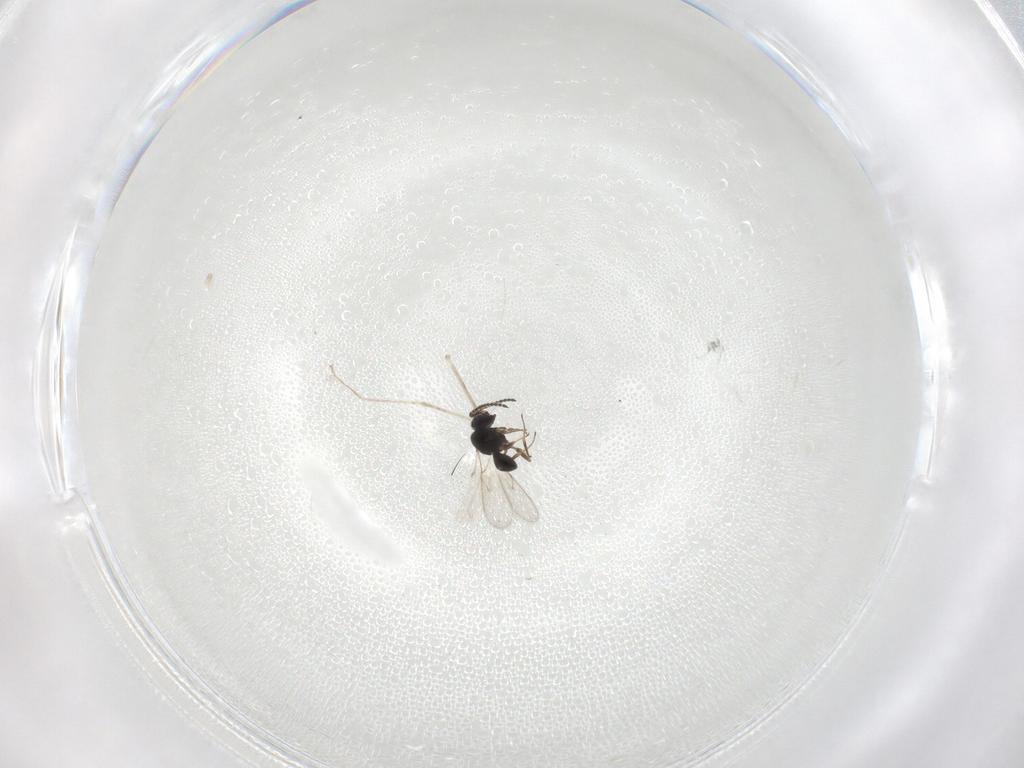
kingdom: Animalia
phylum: Arthropoda
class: Insecta
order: Hymenoptera
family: Scelionidae
